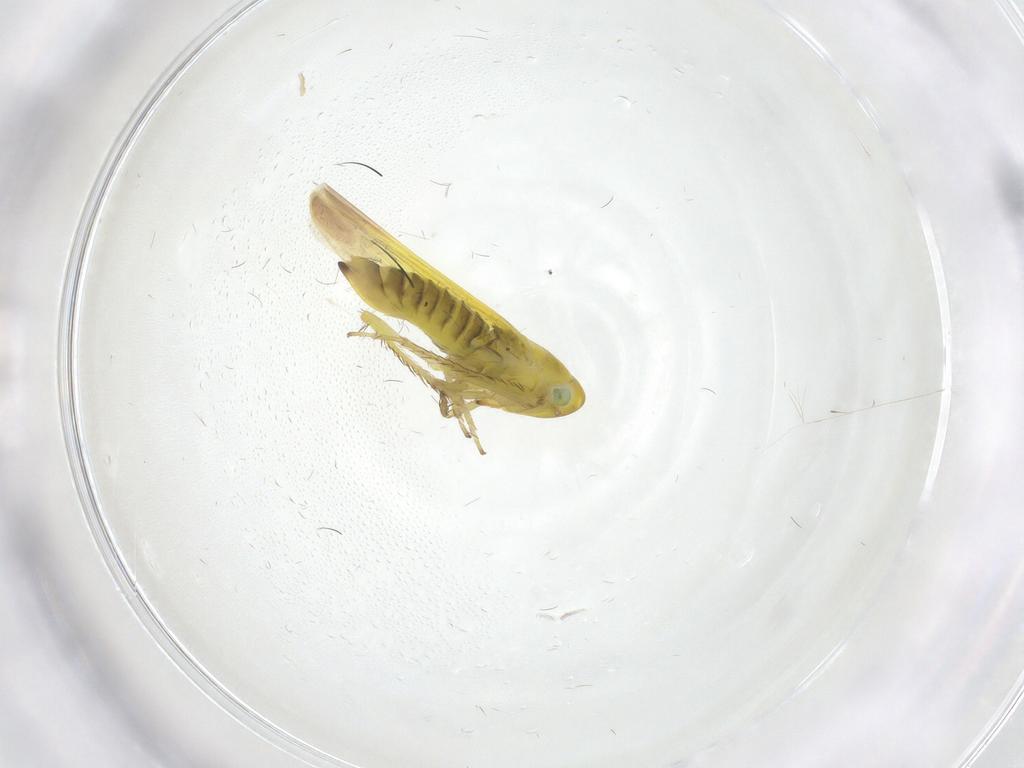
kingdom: Animalia
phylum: Arthropoda
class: Insecta
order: Hemiptera
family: Cicadellidae
